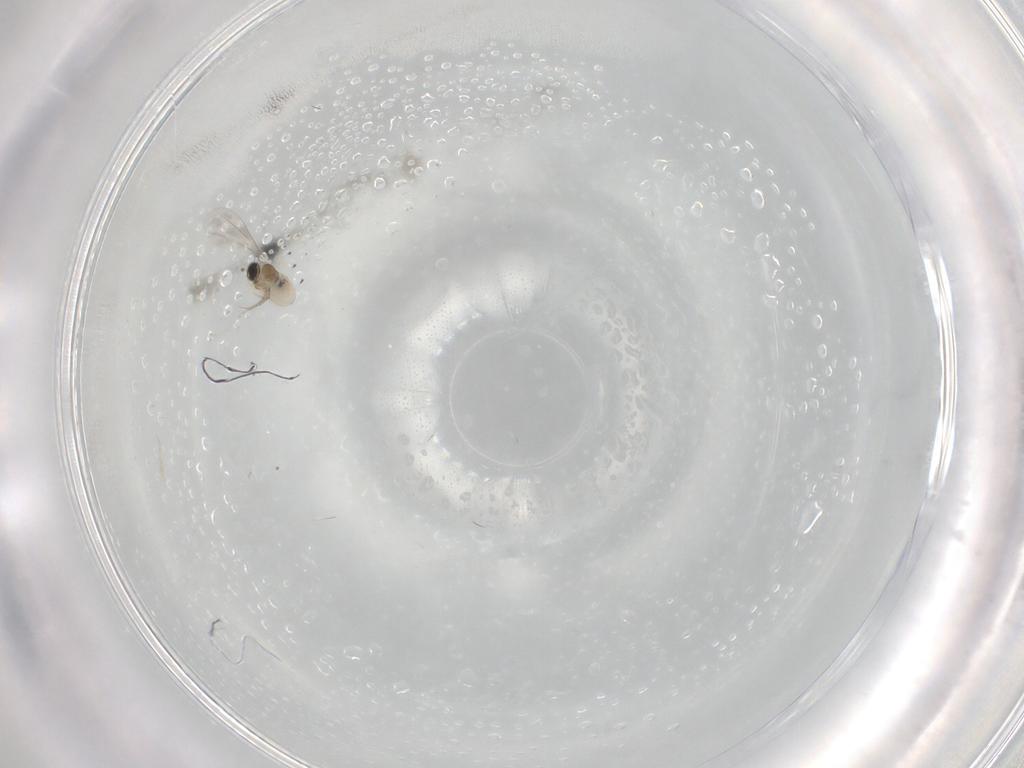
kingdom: Animalia
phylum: Arthropoda
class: Insecta
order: Diptera
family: Cecidomyiidae
